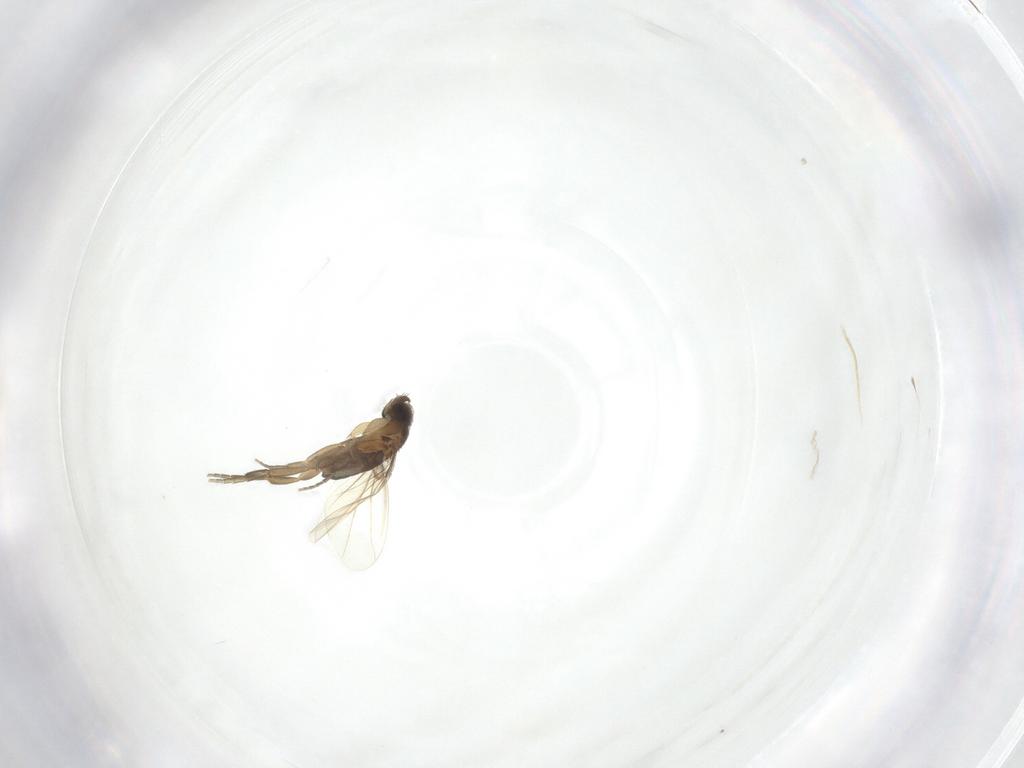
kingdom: Animalia
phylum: Arthropoda
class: Insecta
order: Diptera
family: Phoridae
